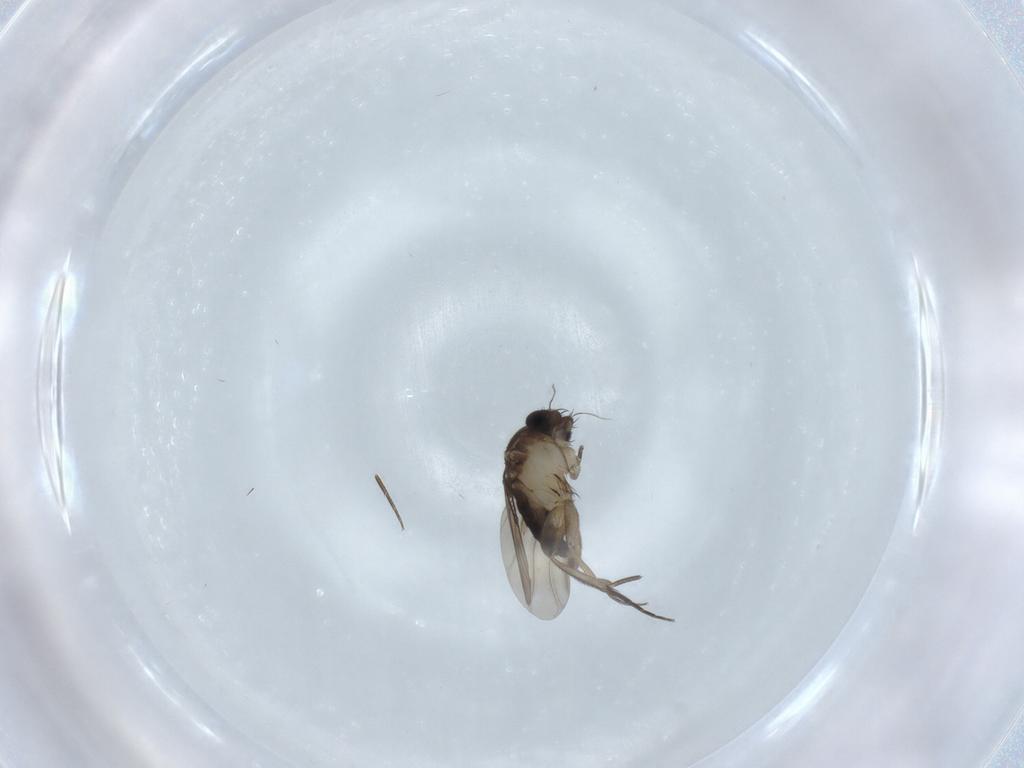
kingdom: Animalia
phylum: Arthropoda
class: Insecta
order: Diptera
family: Phoridae
